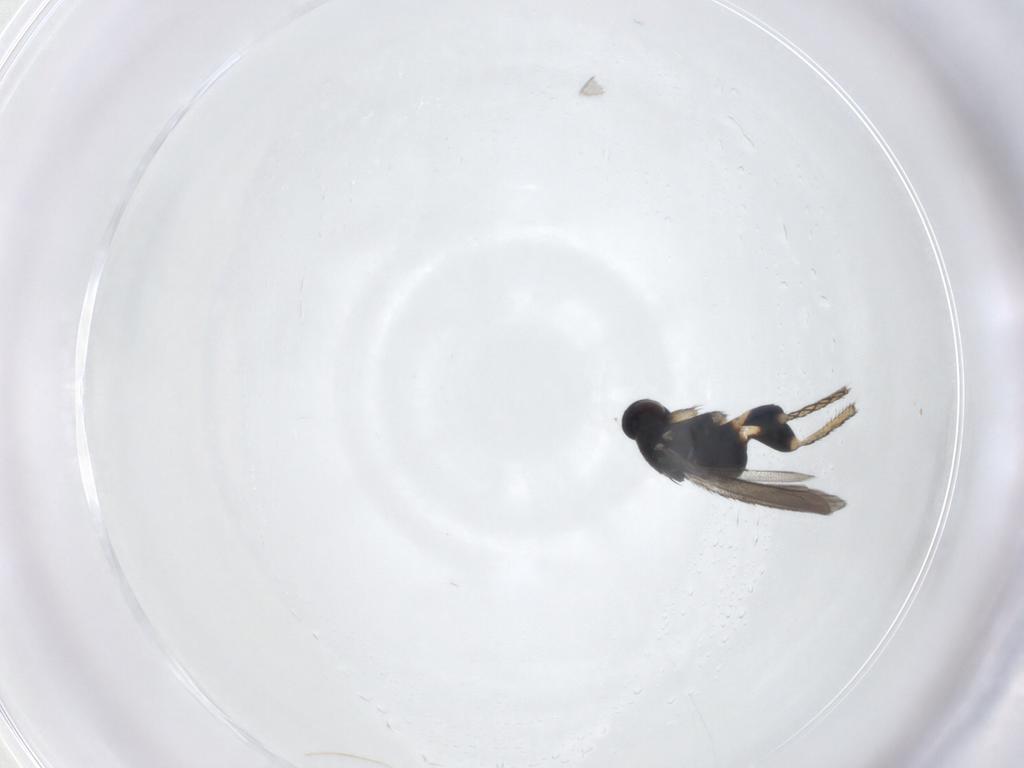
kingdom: Animalia
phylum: Arthropoda
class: Insecta
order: Hymenoptera
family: Eulophidae
